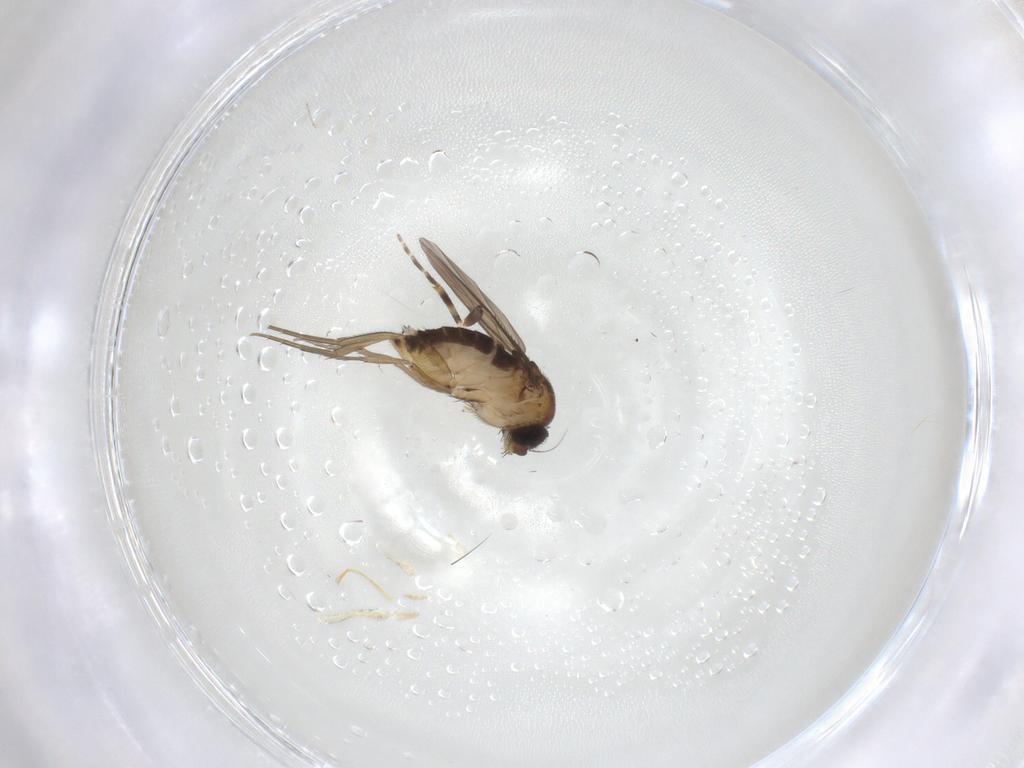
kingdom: Animalia
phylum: Arthropoda
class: Insecta
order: Diptera
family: Phoridae
